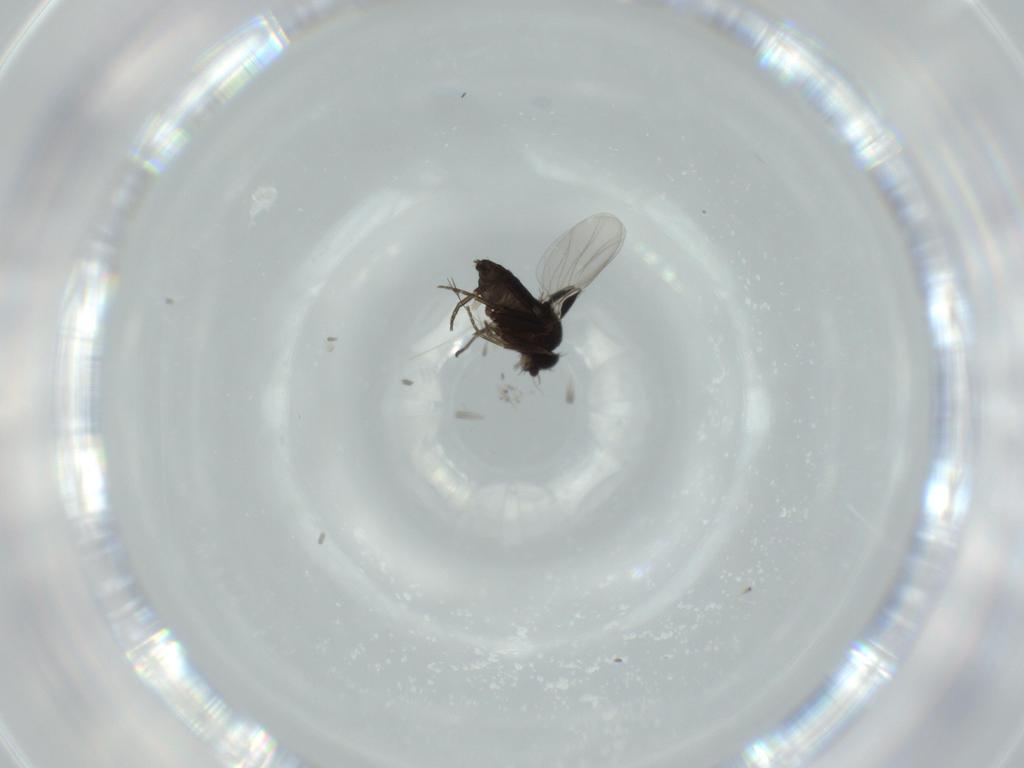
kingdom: Animalia
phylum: Arthropoda
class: Insecta
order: Diptera
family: Phoridae
